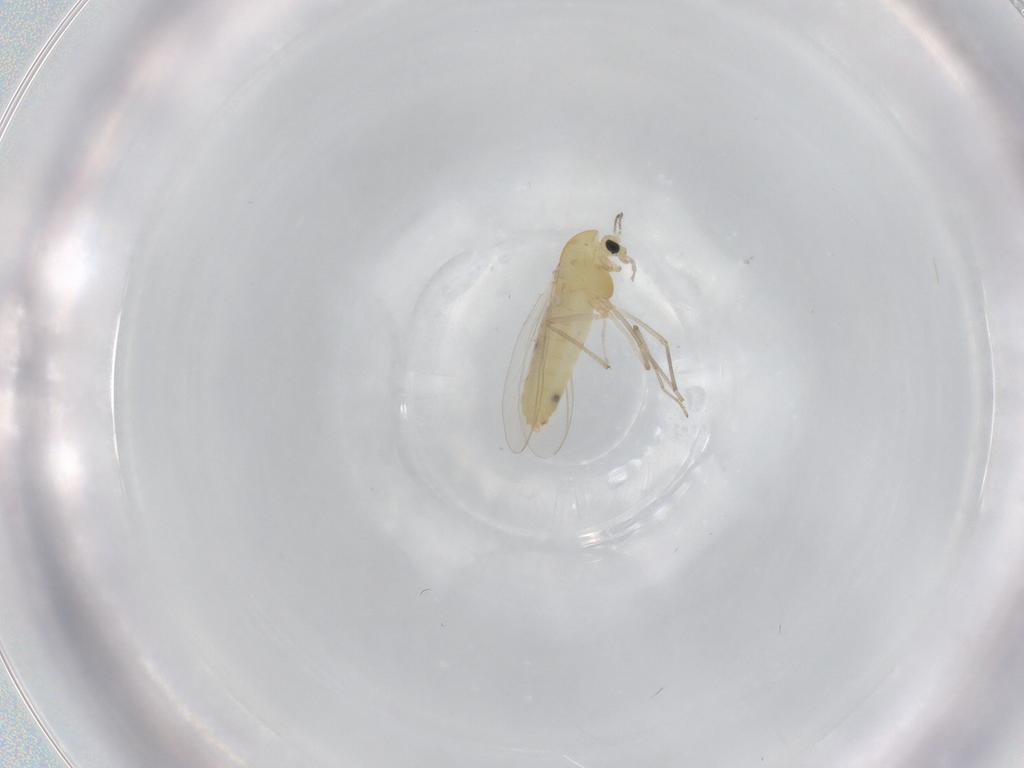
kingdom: Animalia
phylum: Arthropoda
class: Insecta
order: Diptera
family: Chironomidae
